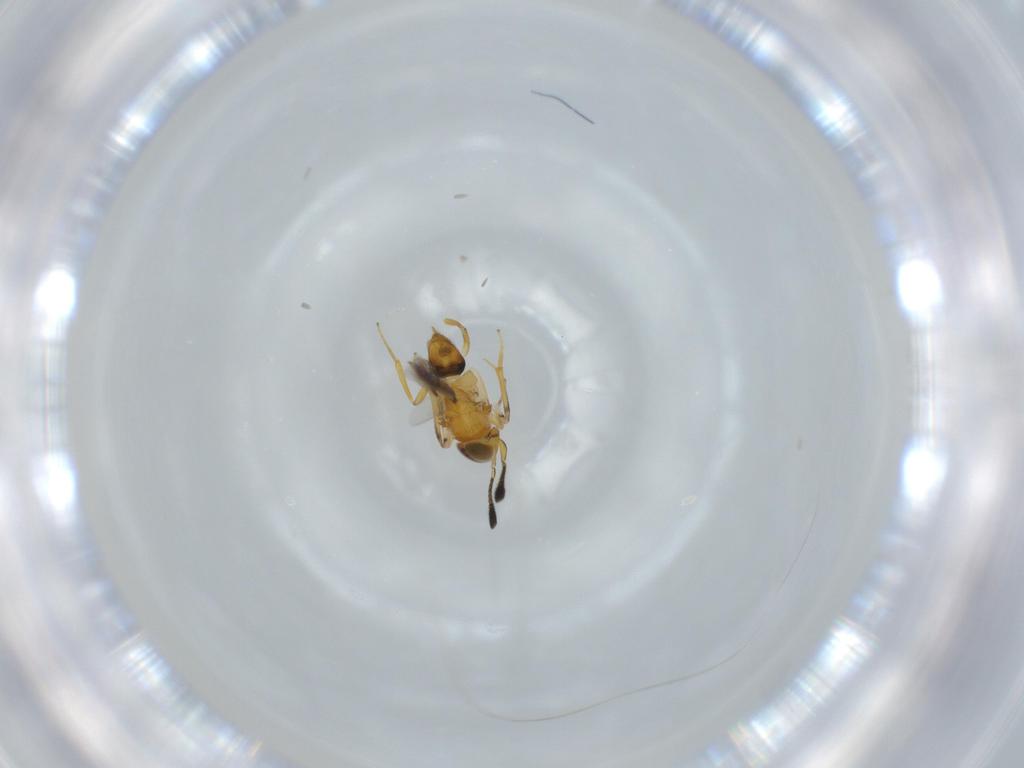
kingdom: Animalia
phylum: Arthropoda
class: Insecta
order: Hymenoptera
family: Encyrtidae
